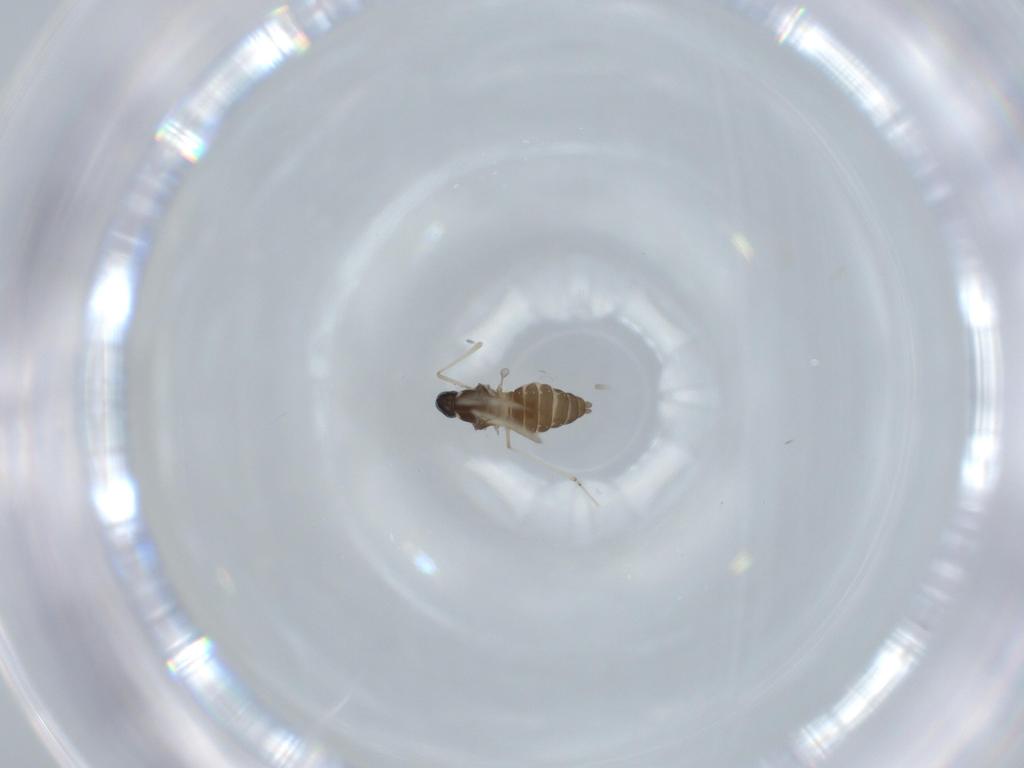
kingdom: Animalia
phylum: Arthropoda
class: Insecta
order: Diptera
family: Cecidomyiidae
